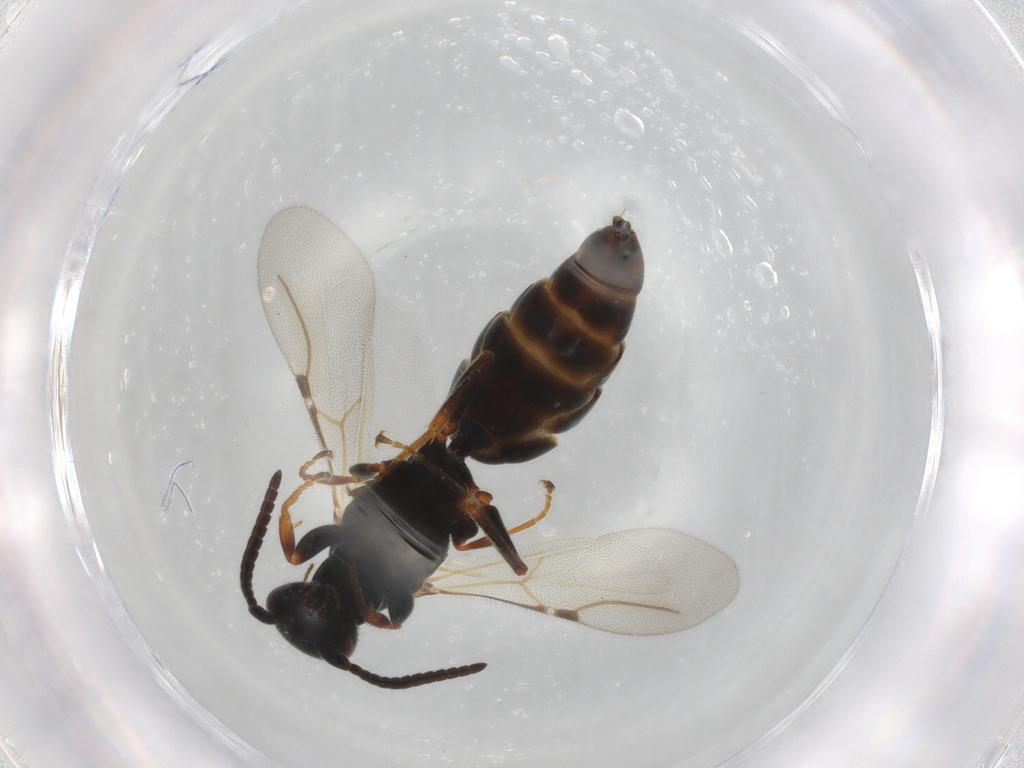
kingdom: Animalia
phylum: Arthropoda
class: Insecta
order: Hymenoptera
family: Bethylidae
